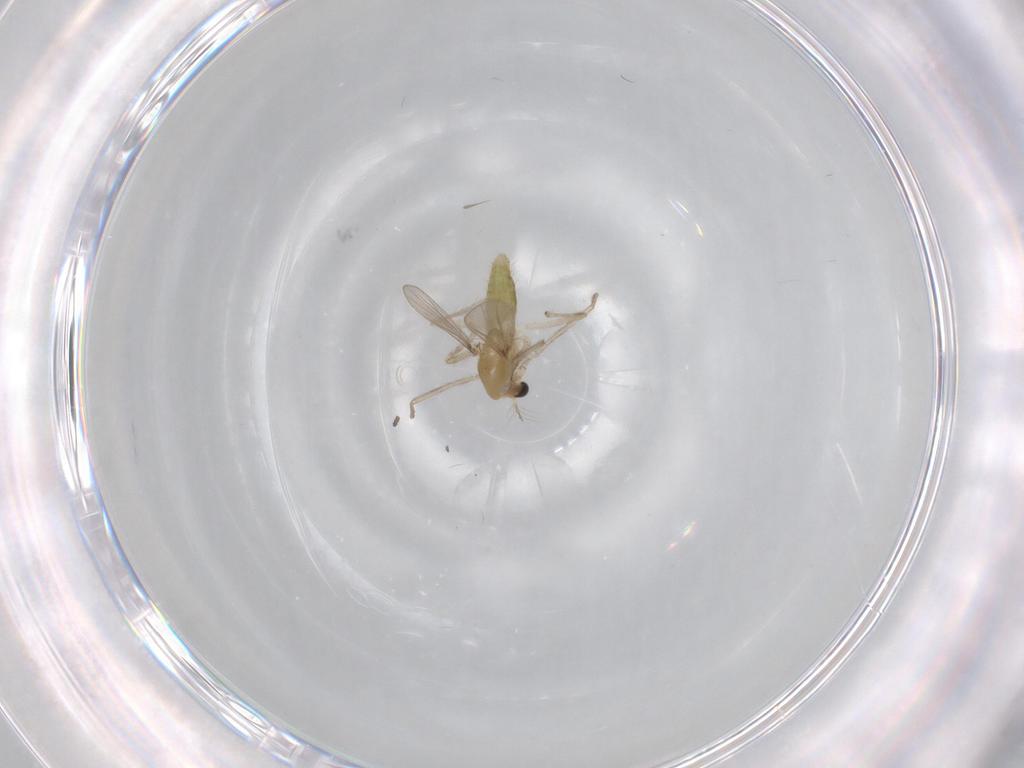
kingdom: Animalia
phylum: Arthropoda
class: Insecta
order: Diptera
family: Chironomidae
